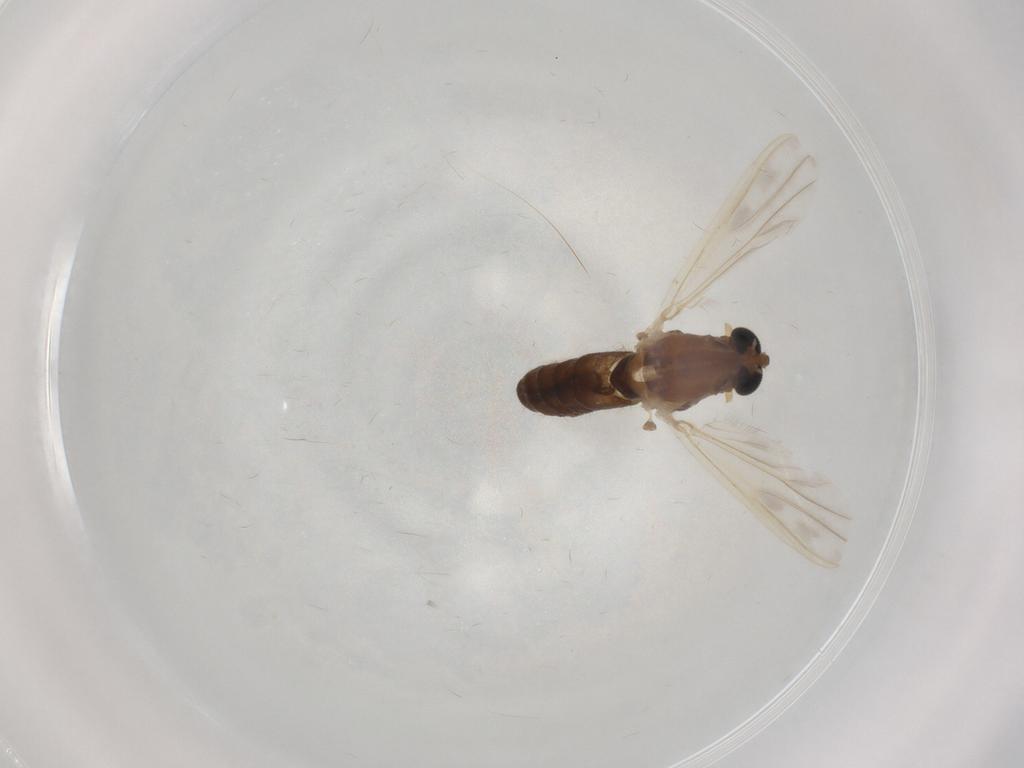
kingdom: Animalia
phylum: Arthropoda
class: Insecta
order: Diptera
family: Chironomidae
